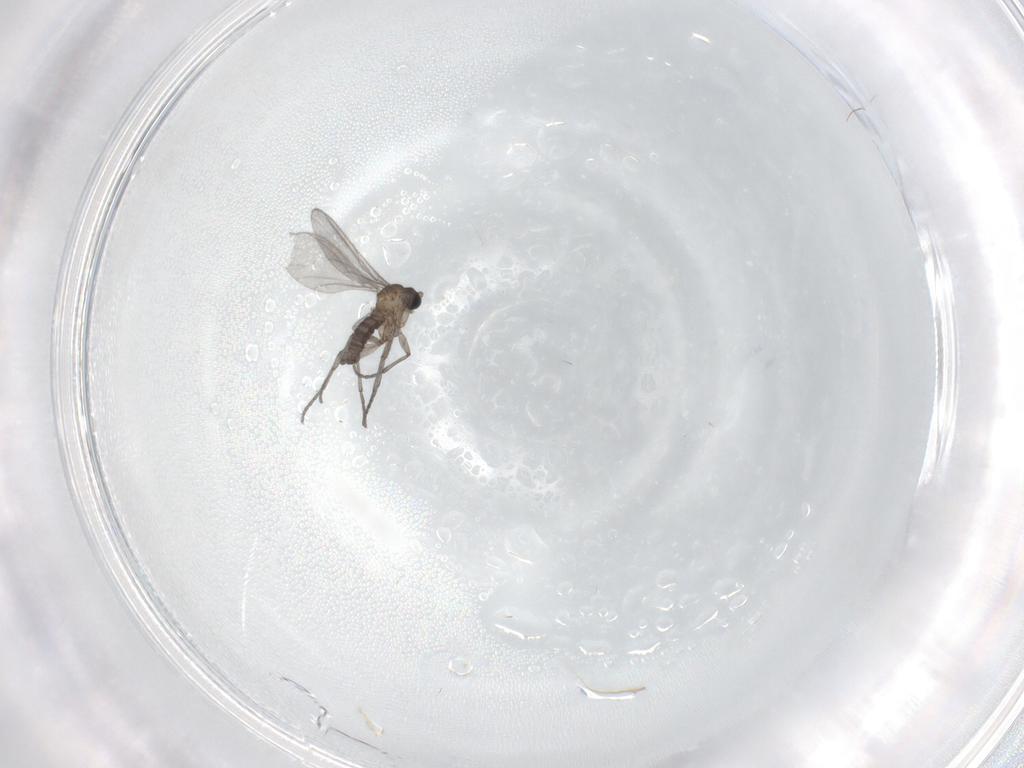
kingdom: Animalia
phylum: Arthropoda
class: Insecta
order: Diptera
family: Sciaridae
